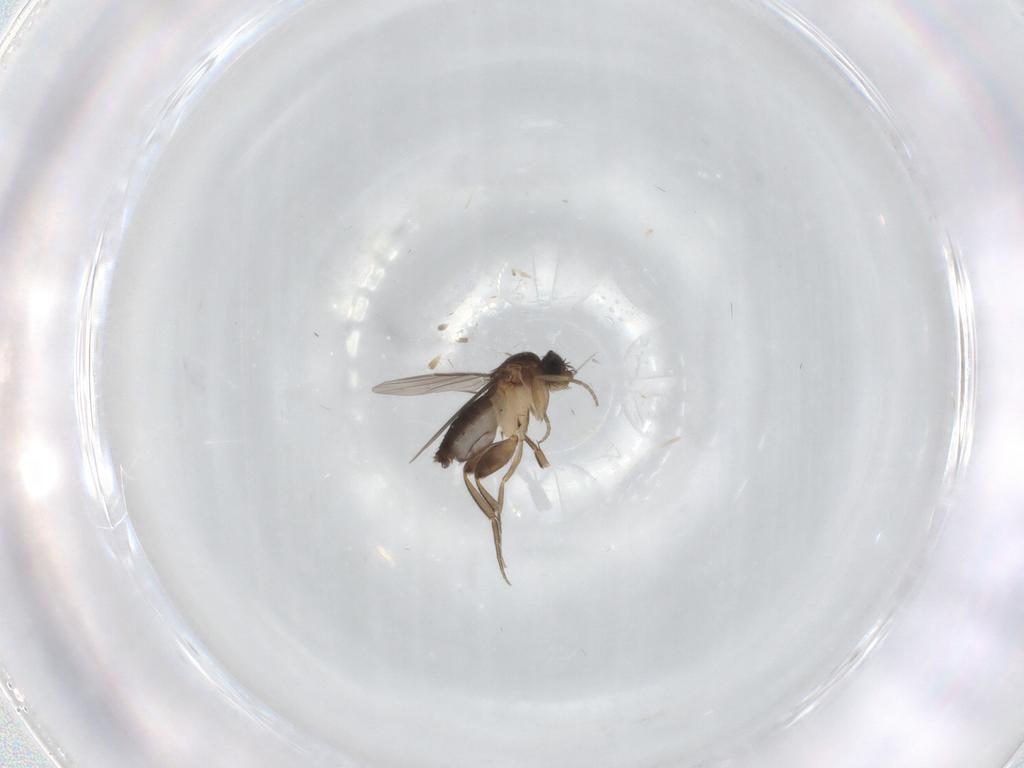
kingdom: Animalia
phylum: Arthropoda
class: Insecta
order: Diptera
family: Phoridae
